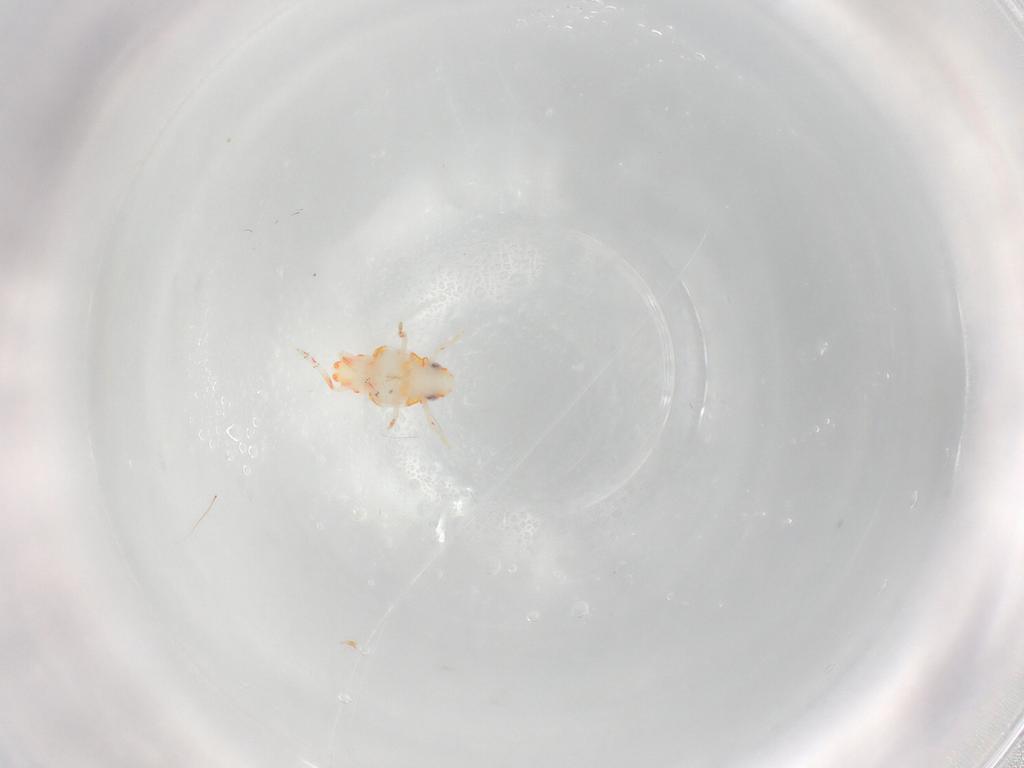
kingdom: Animalia
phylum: Arthropoda
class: Insecta
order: Hemiptera
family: Tropiduchidae
